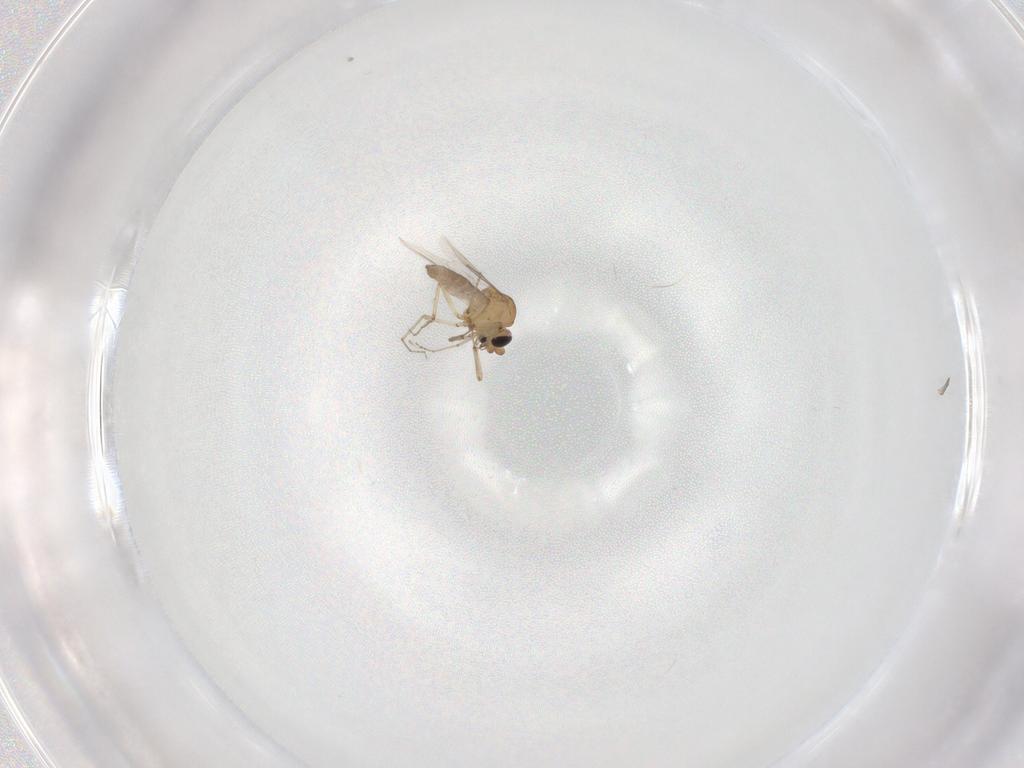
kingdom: Animalia
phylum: Arthropoda
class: Insecta
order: Diptera
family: Ceratopogonidae
